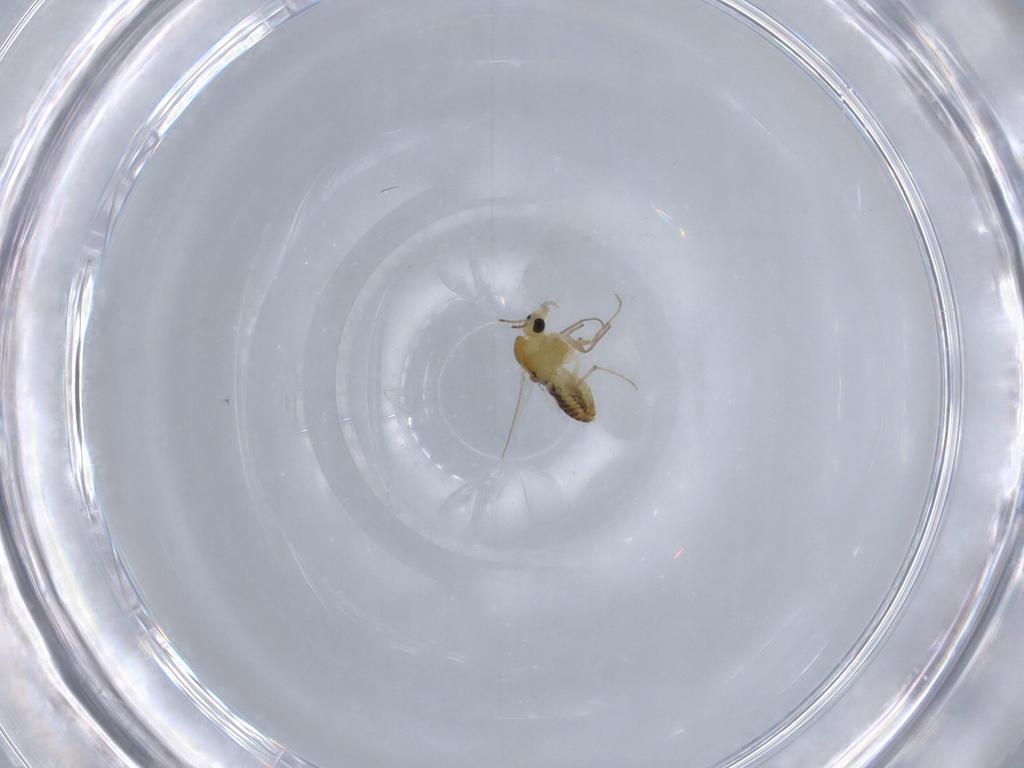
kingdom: Animalia
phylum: Arthropoda
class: Insecta
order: Diptera
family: Chironomidae
